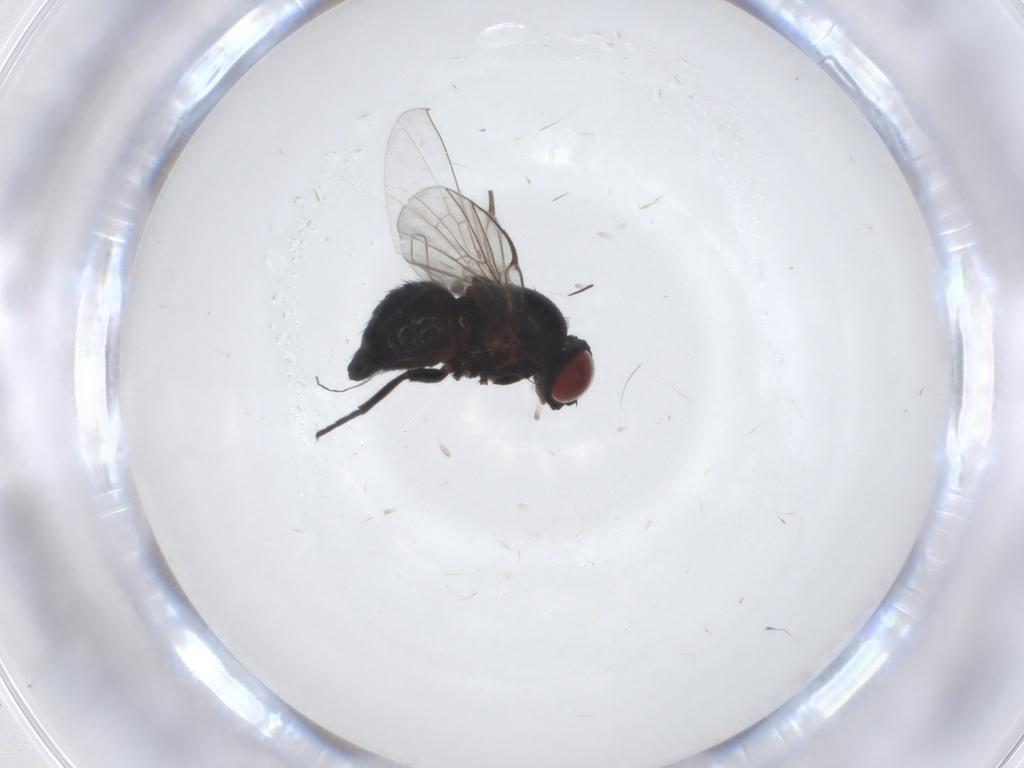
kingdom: Animalia
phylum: Arthropoda
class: Insecta
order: Diptera
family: Agromyzidae
